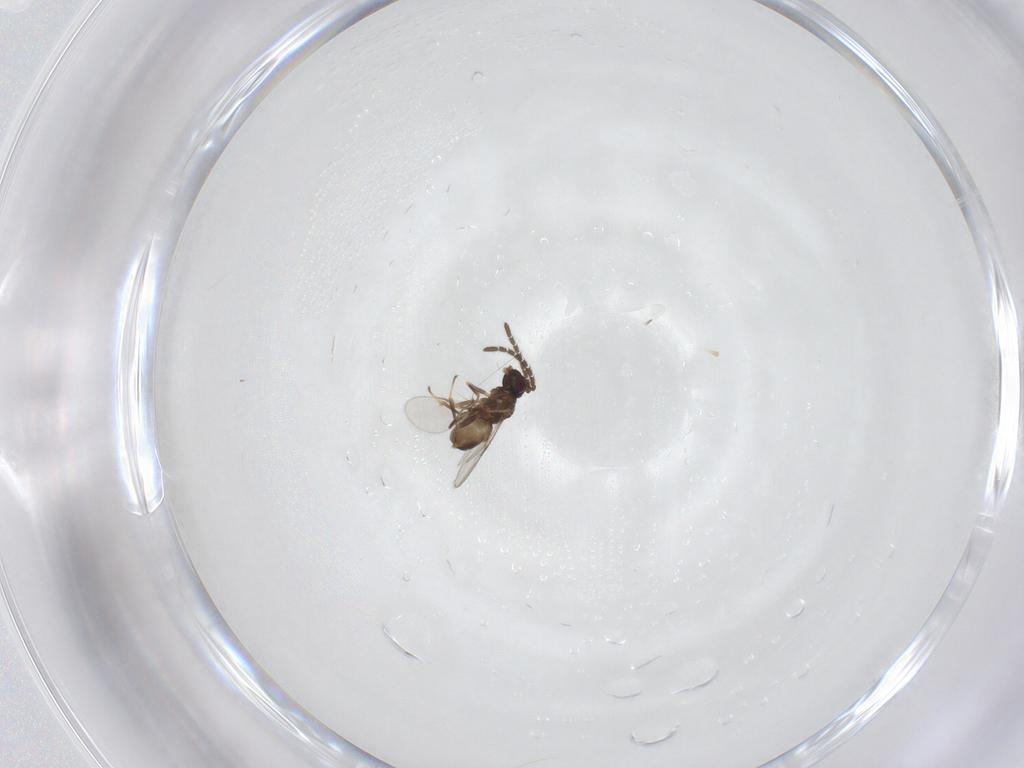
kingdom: Animalia
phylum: Arthropoda
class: Insecta
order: Hymenoptera
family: Encyrtidae
